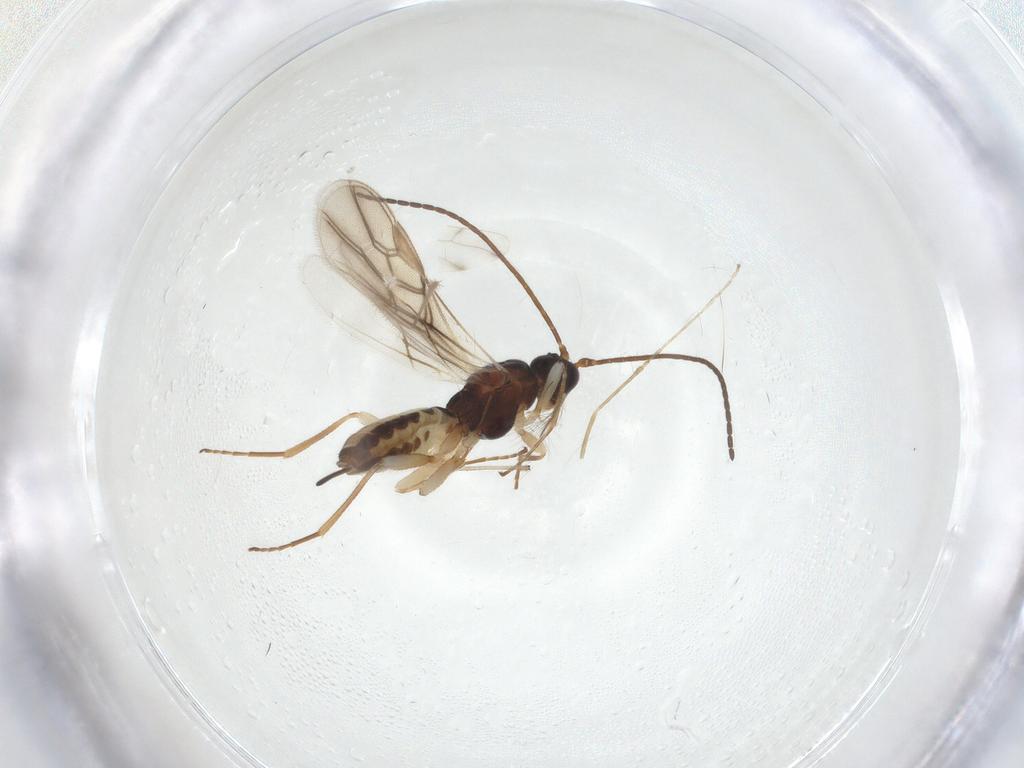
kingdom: Animalia
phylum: Arthropoda
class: Insecta
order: Hymenoptera
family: Braconidae
